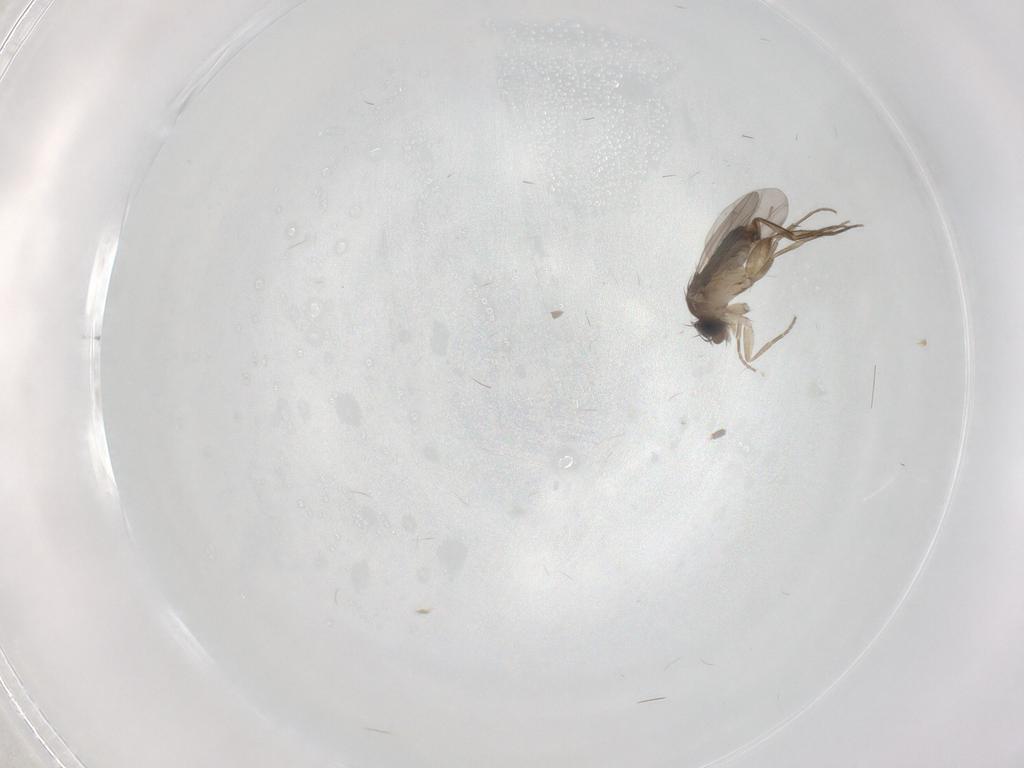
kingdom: Animalia
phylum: Arthropoda
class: Insecta
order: Diptera
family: Phoridae
